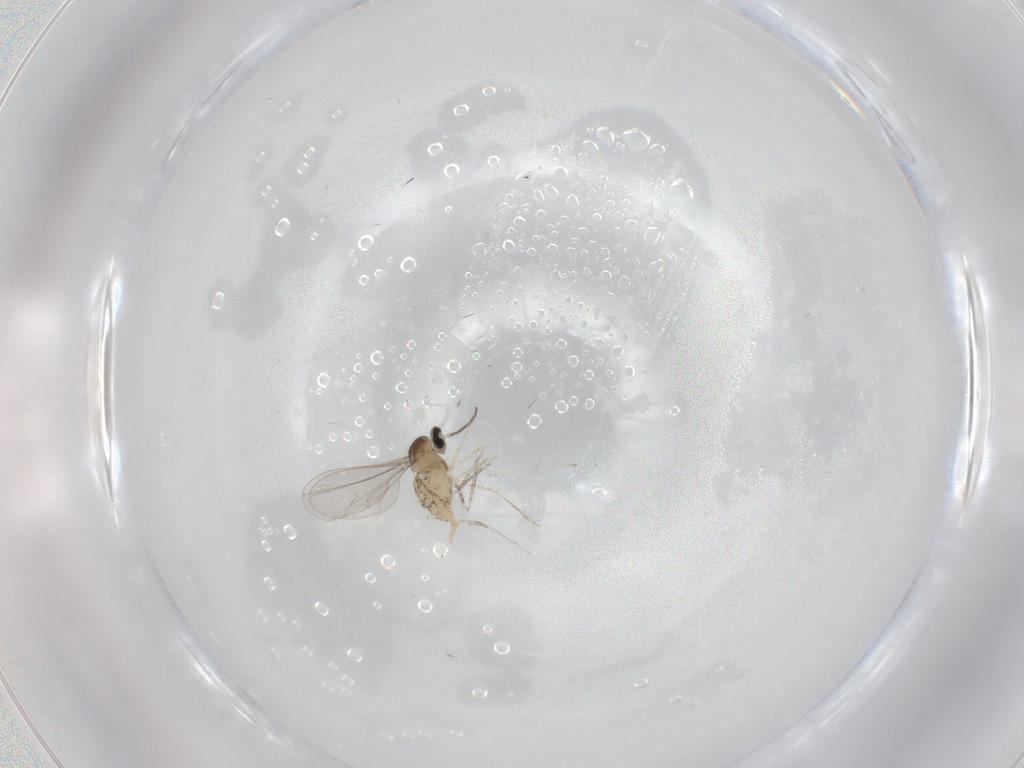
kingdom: Animalia
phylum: Arthropoda
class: Insecta
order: Diptera
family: Cecidomyiidae
